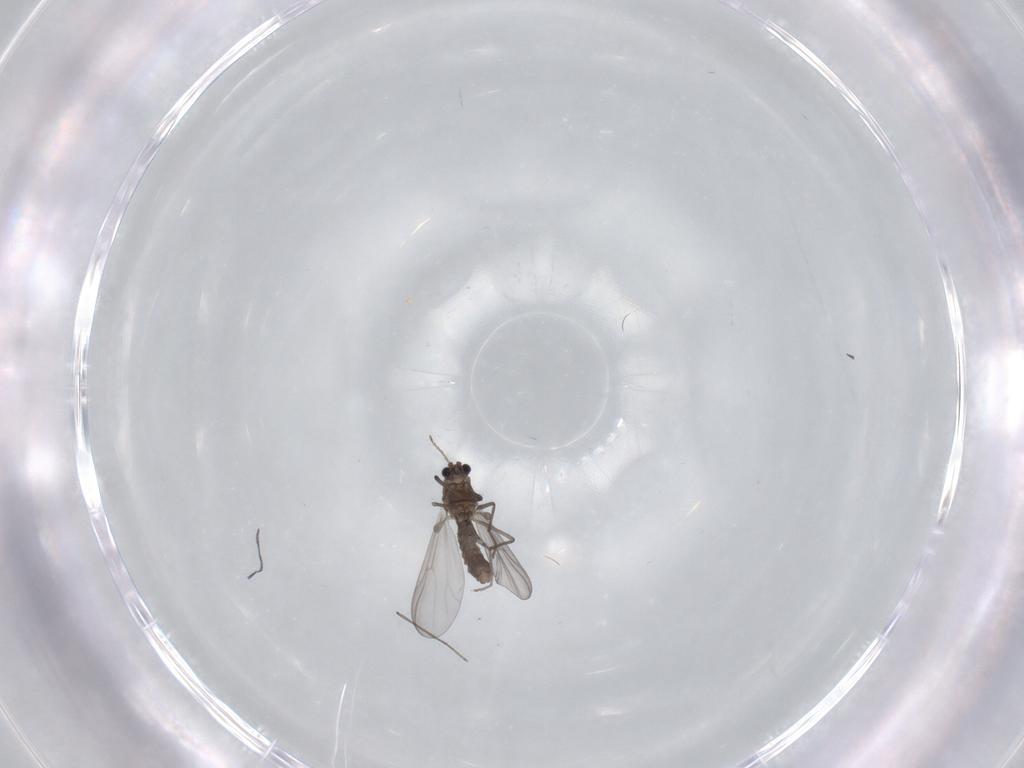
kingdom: Animalia
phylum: Arthropoda
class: Insecta
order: Diptera
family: Chironomidae
